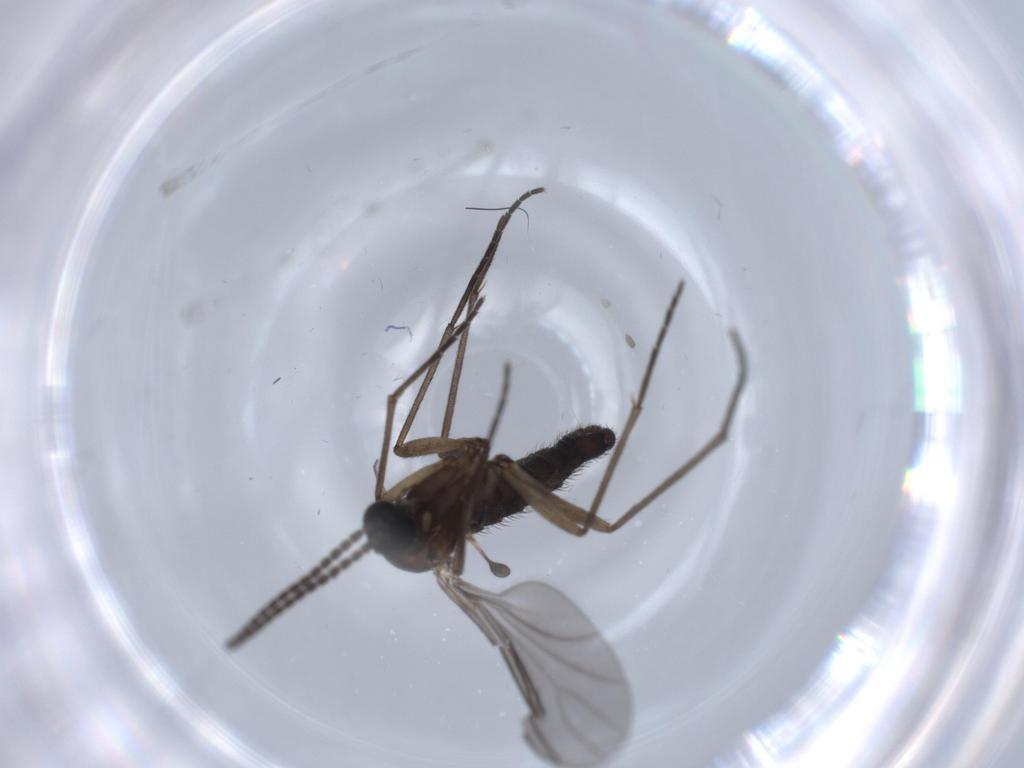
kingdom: Animalia
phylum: Arthropoda
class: Insecta
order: Diptera
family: Sciaridae
